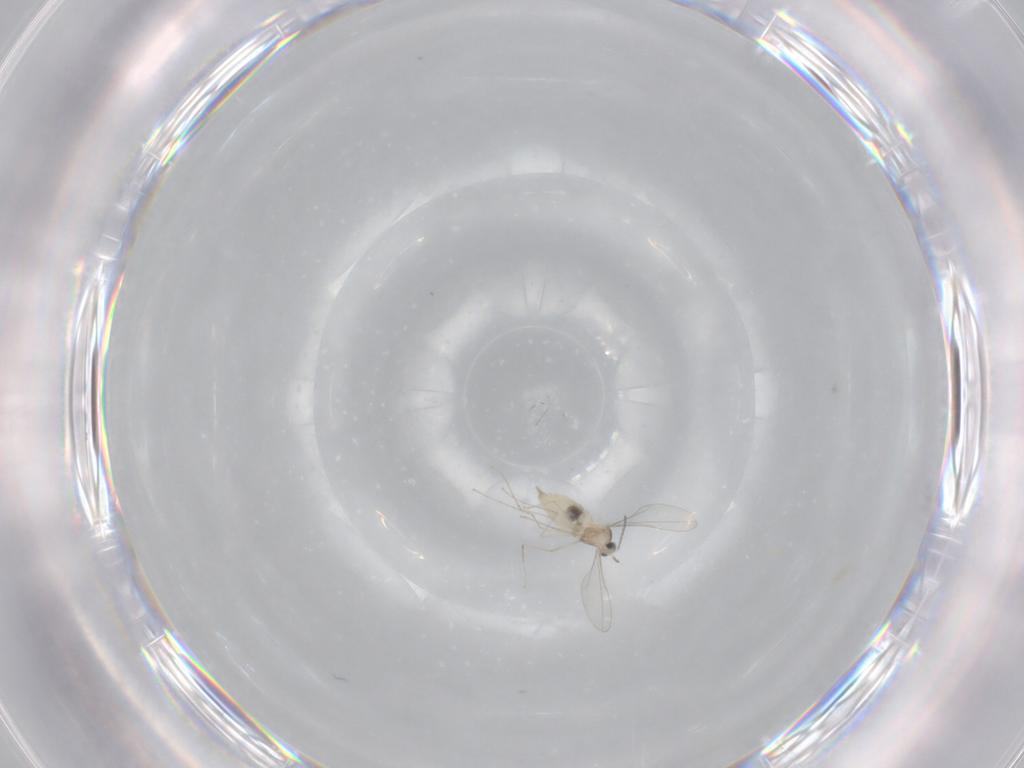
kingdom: Animalia
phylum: Arthropoda
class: Insecta
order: Diptera
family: Cecidomyiidae
